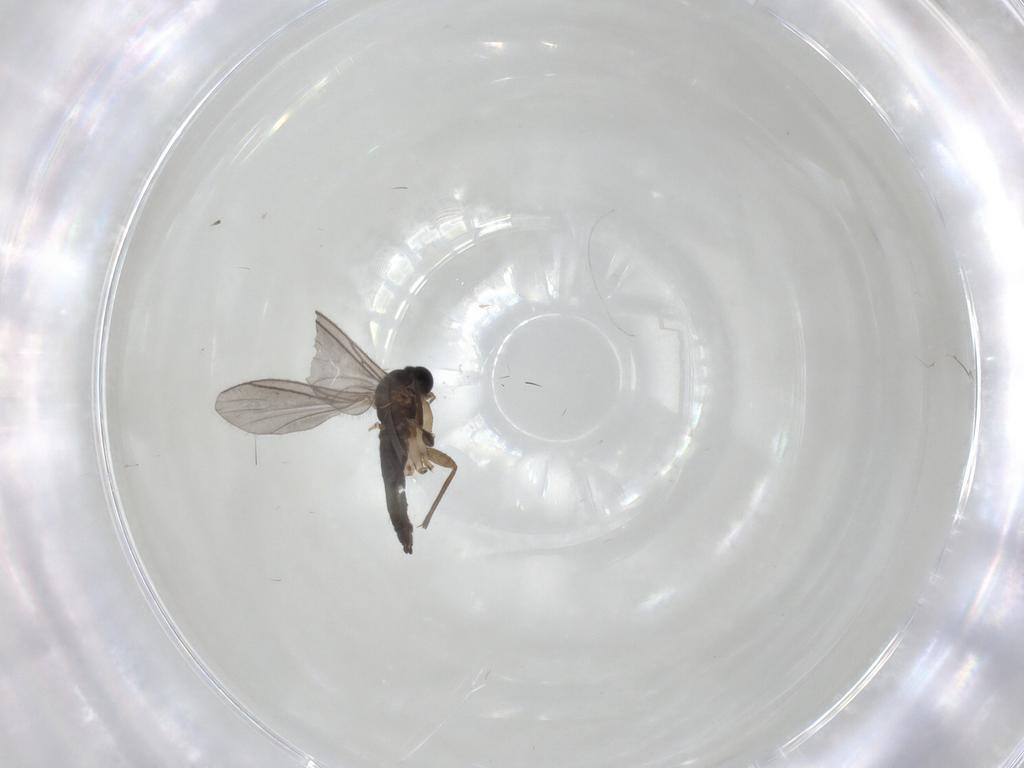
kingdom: Animalia
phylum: Arthropoda
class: Insecta
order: Diptera
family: Sciaridae
